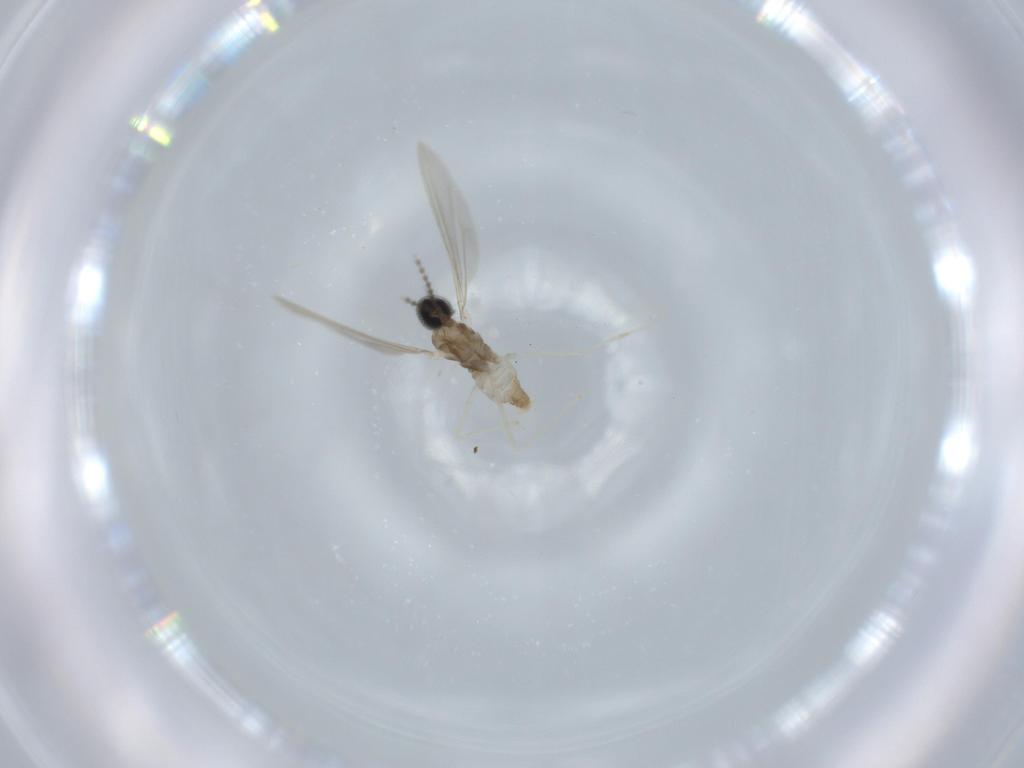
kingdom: Animalia
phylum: Arthropoda
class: Insecta
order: Diptera
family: Cecidomyiidae
